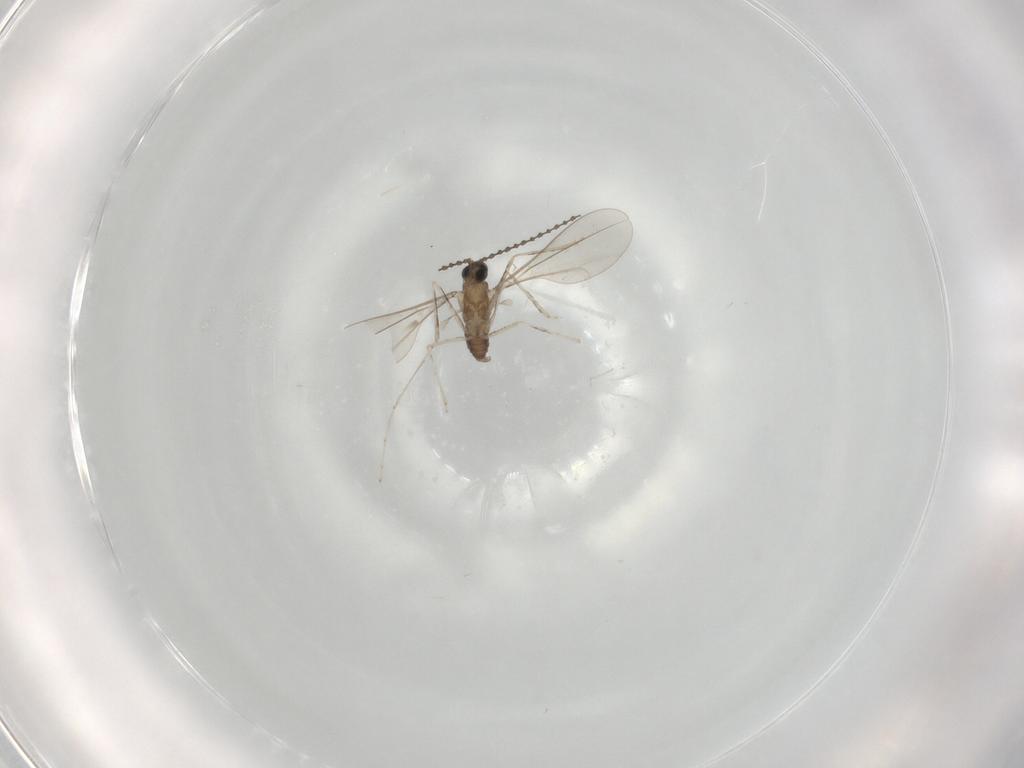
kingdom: Animalia
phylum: Arthropoda
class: Insecta
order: Diptera
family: Cecidomyiidae
